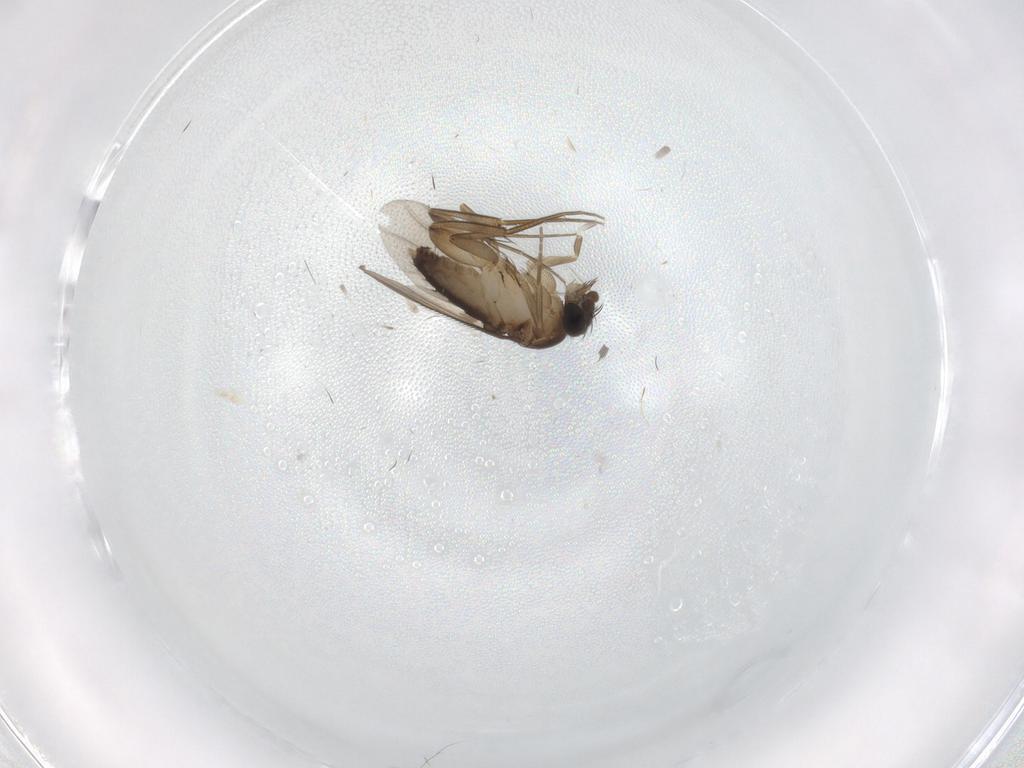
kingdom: Animalia
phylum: Arthropoda
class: Insecta
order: Diptera
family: Phoridae
